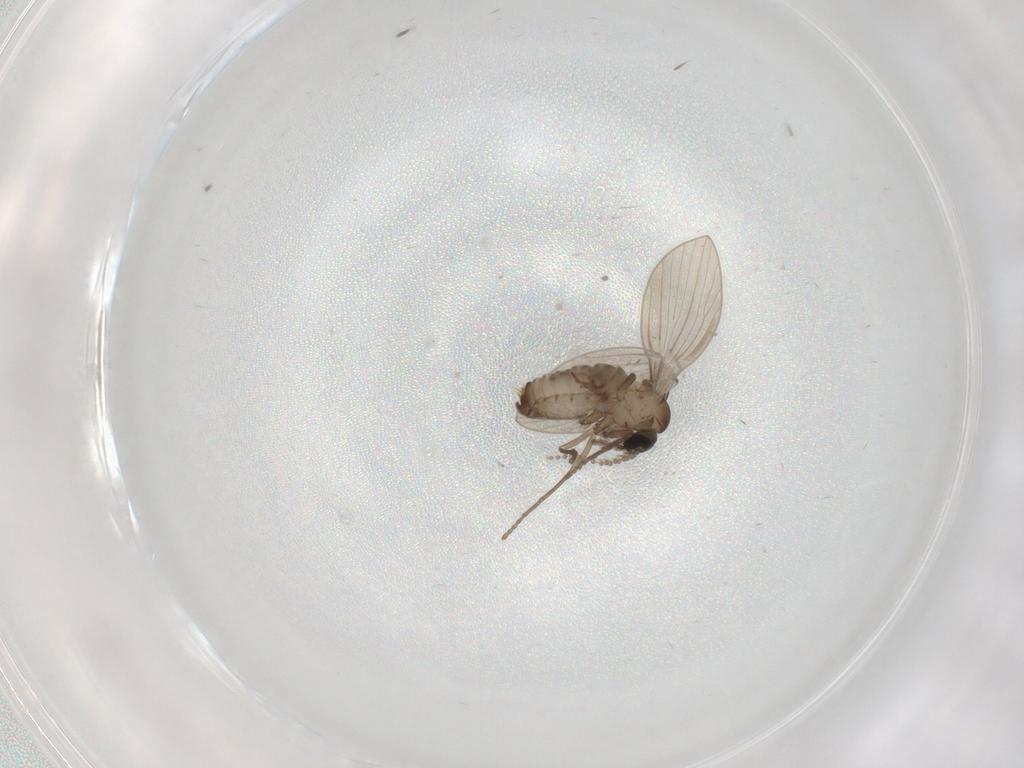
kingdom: Animalia
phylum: Arthropoda
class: Insecta
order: Diptera
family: Psychodidae
